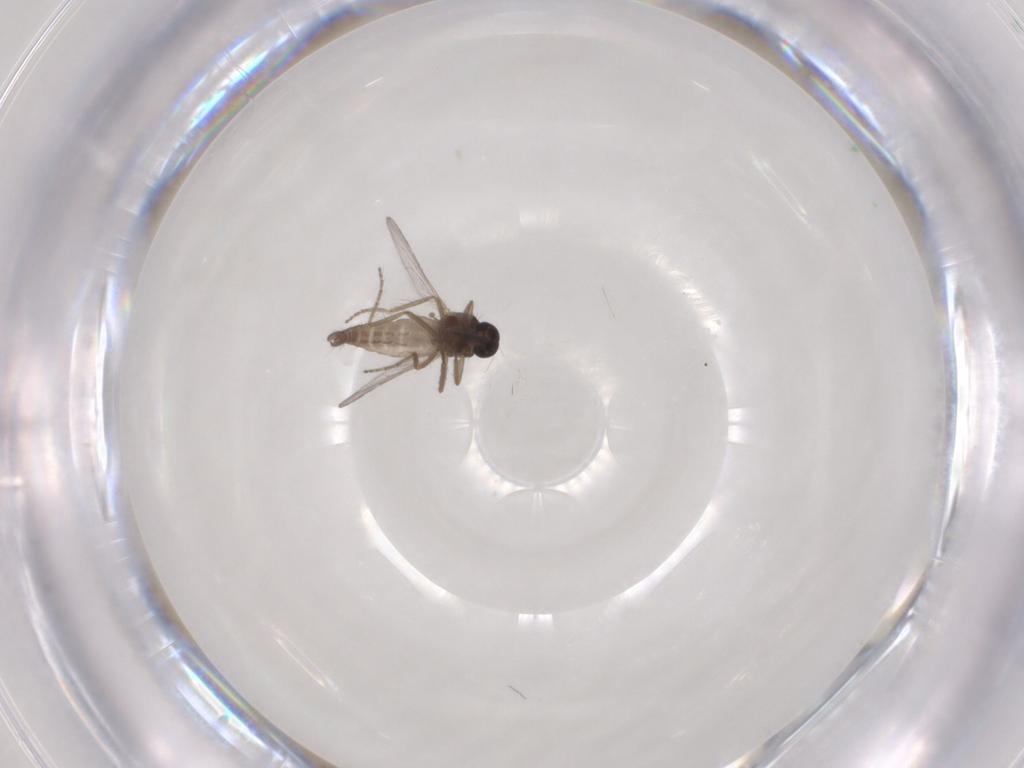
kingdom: Animalia
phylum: Arthropoda
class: Insecta
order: Diptera
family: Ceratopogonidae
